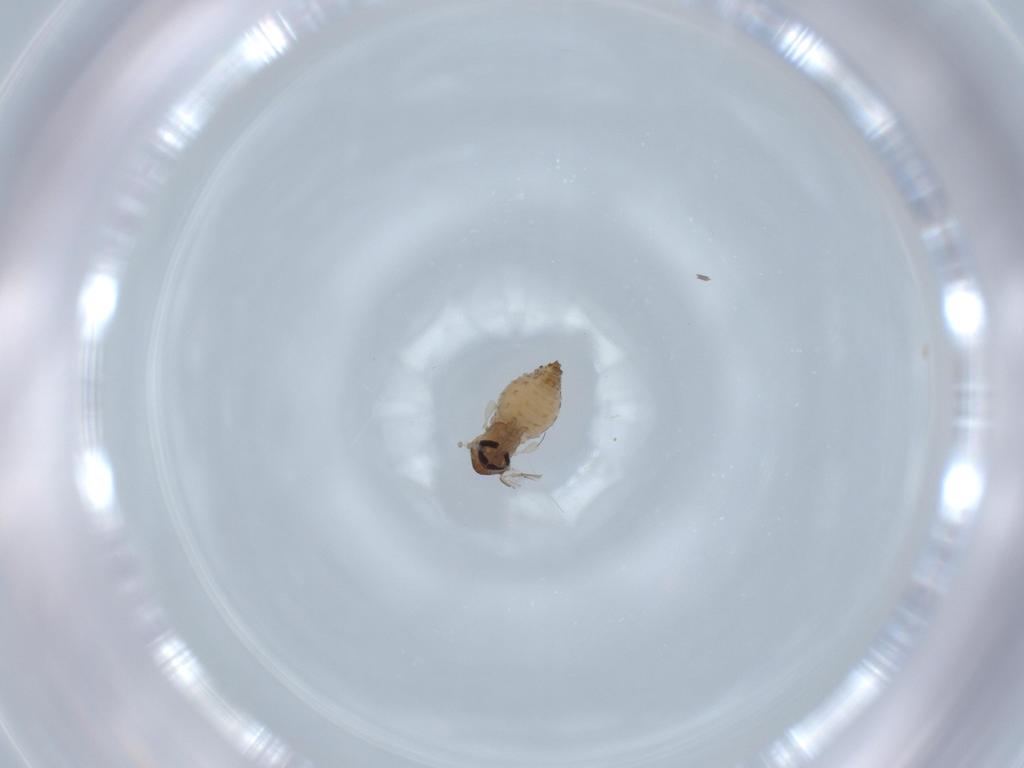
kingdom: Animalia
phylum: Arthropoda
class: Insecta
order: Diptera
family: Psychodidae
